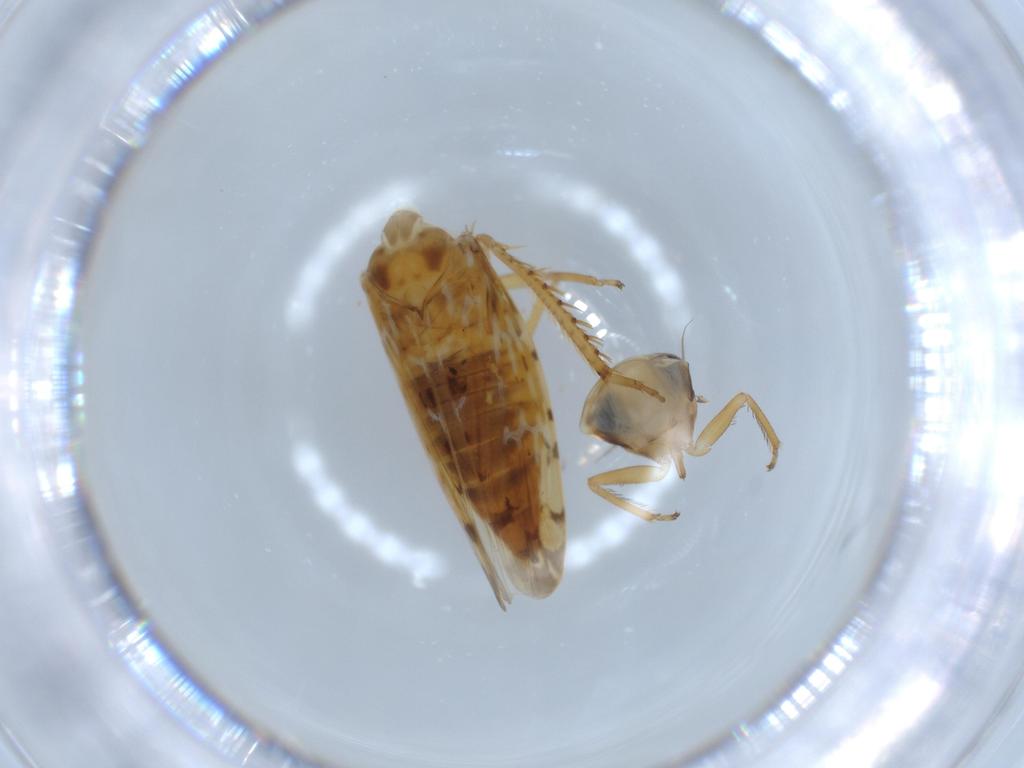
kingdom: Animalia
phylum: Arthropoda
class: Insecta
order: Hemiptera
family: Cicadellidae
